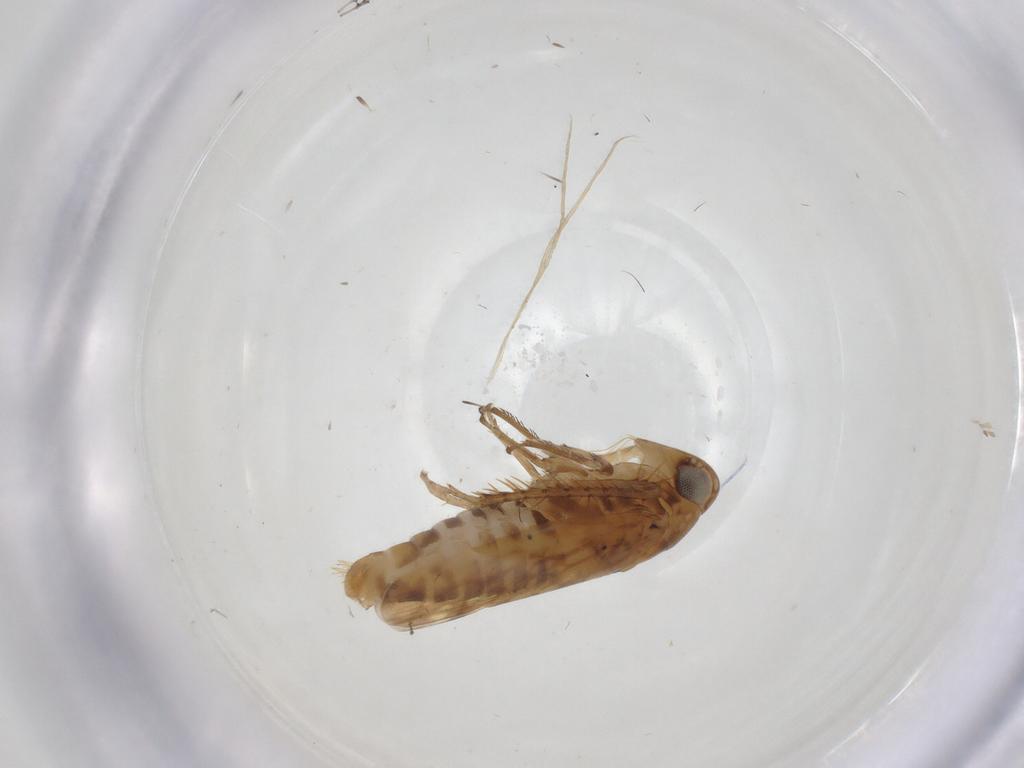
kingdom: Animalia
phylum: Arthropoda
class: Insecta
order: Hemiptera
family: Cicadellidae
